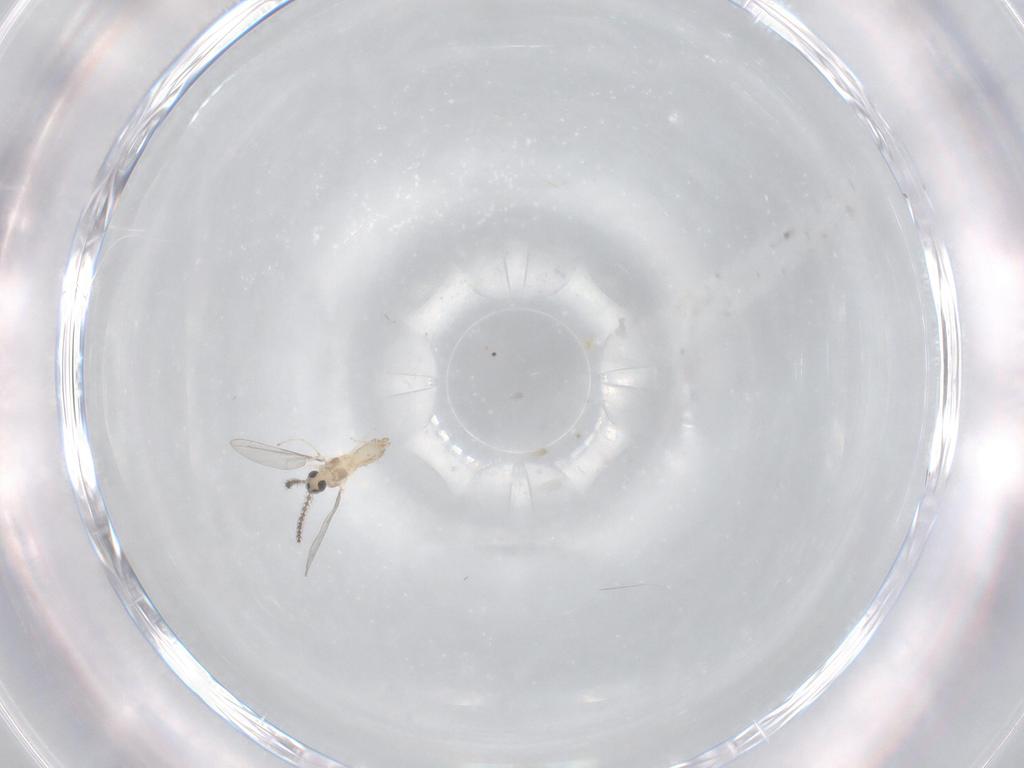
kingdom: Animalia
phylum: Arthropoda
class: Insecta
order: Diptera
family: Cecidomyiidae
